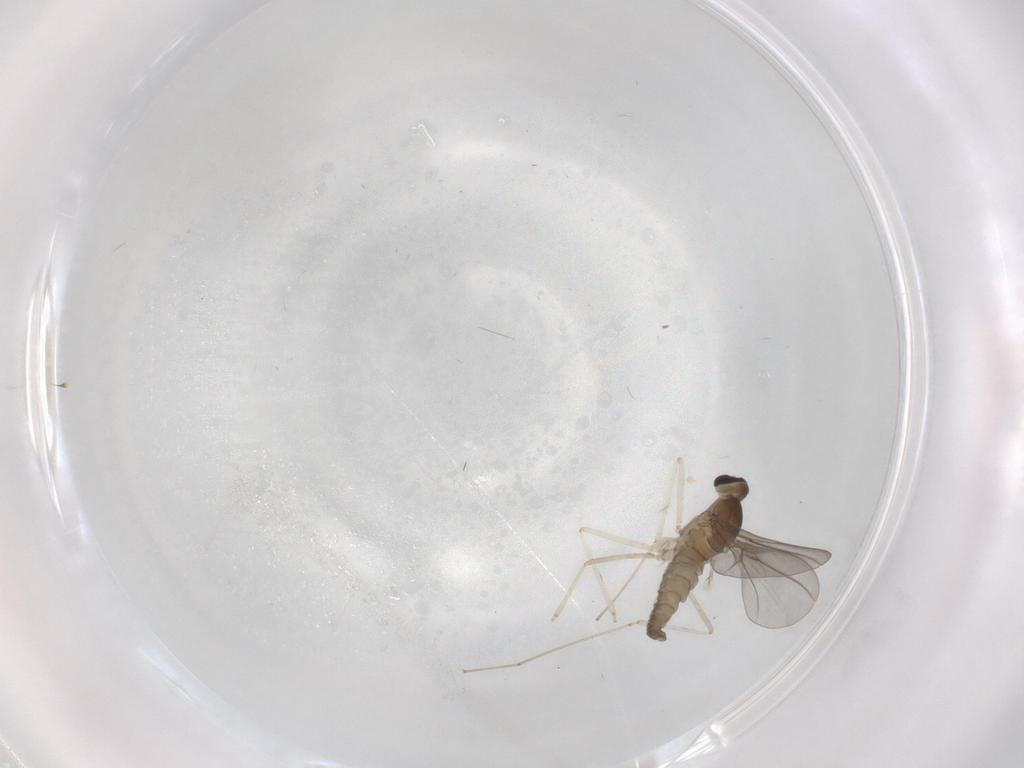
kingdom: Animalia
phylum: Arthropoda
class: Insecta
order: Diptera
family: Cecidomyiidae
